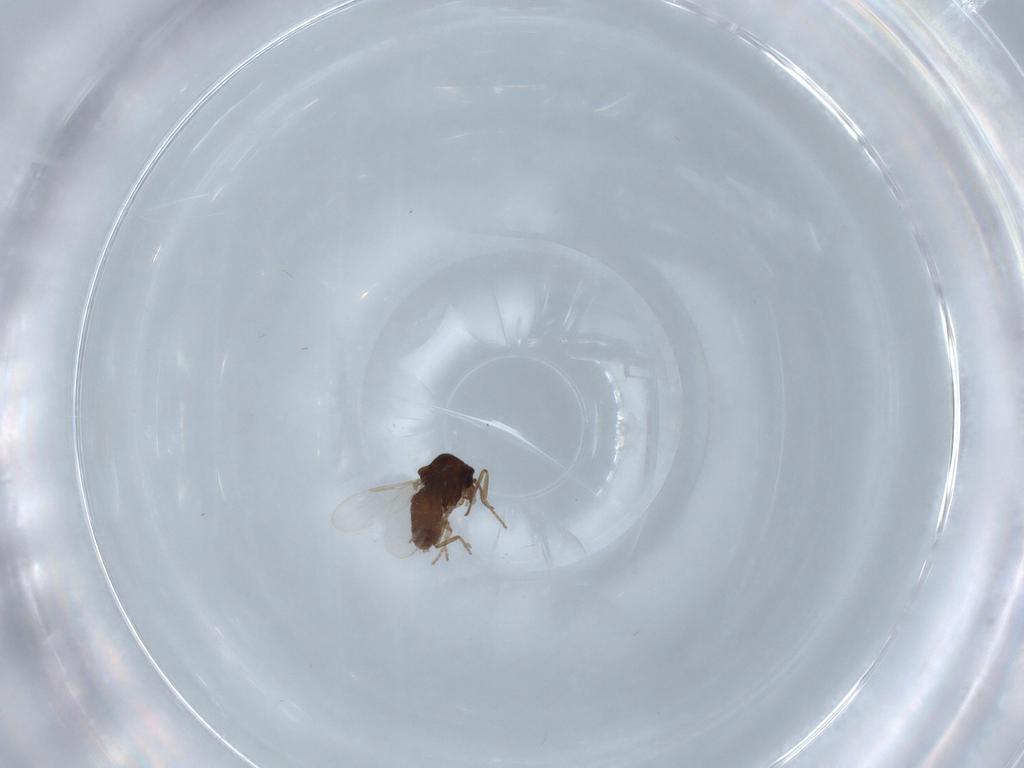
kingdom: Animalia
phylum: Arthropoda
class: Insecta
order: Diptera
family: Ceratopogonidae
